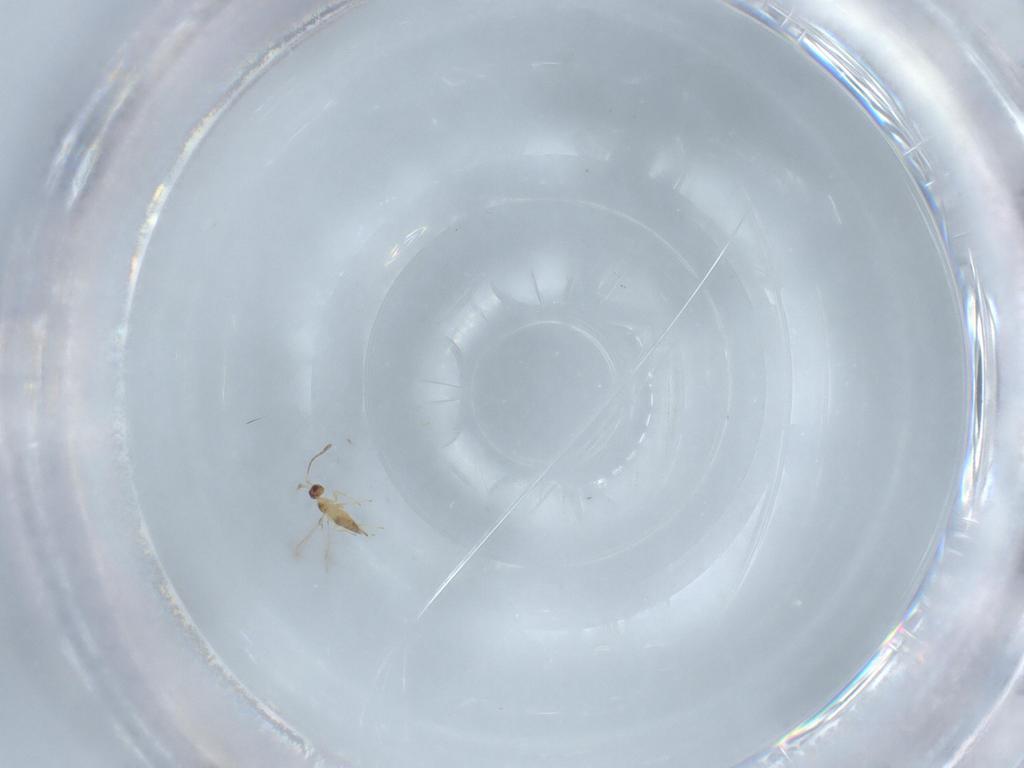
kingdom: Animalia
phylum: Arthropoda
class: Insecta
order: Hymenoptera
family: Mymaridae
